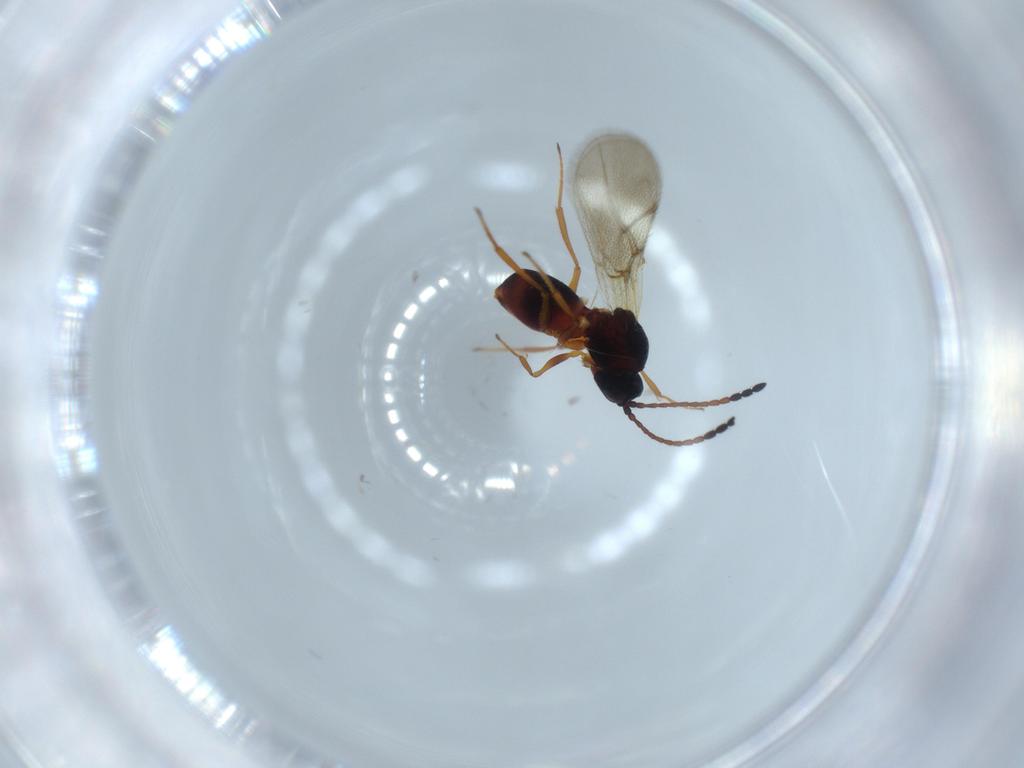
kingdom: Animalia
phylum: Arthropoda
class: Insecta
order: Hymenoptera
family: Figitidae
